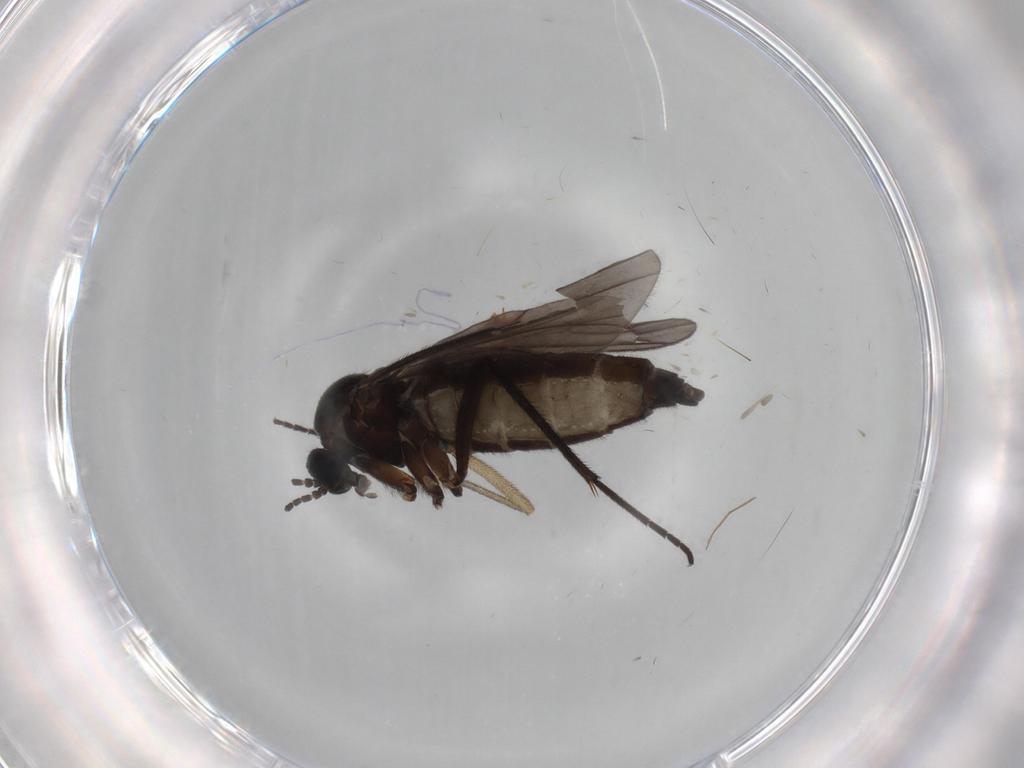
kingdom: Animalia
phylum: Arthropoda
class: Insecta
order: Diptera
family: Sciaridae
